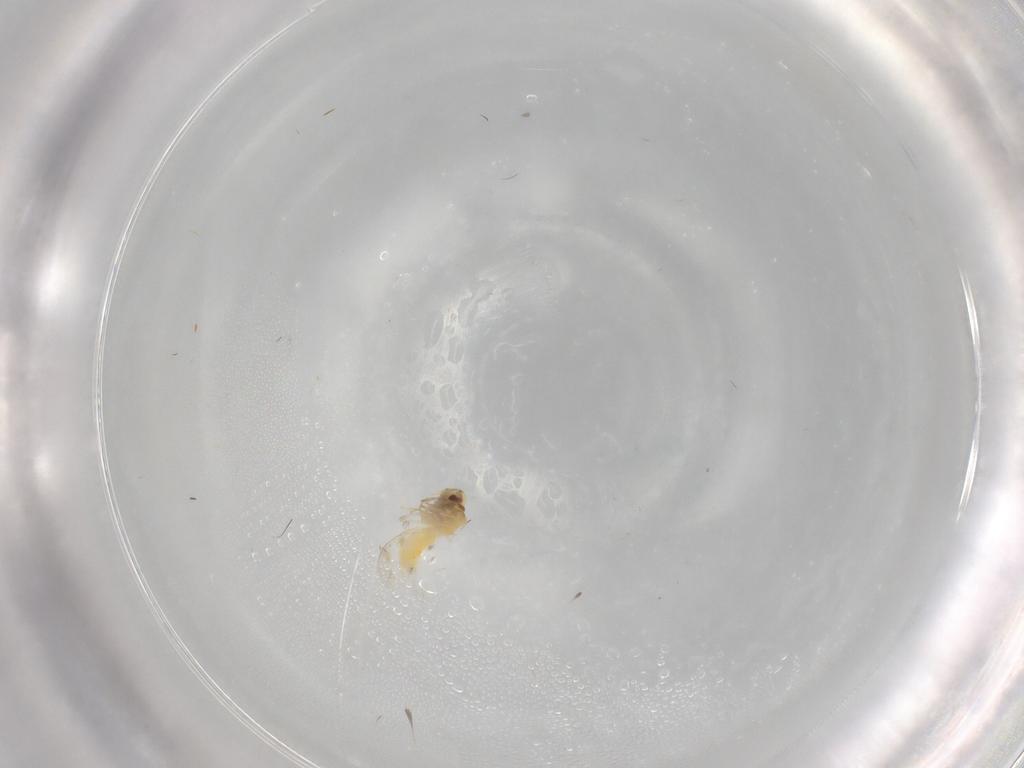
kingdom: Animalia
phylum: Arthropoda
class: Insecta
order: Hemiptera
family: Aleyrodidae
